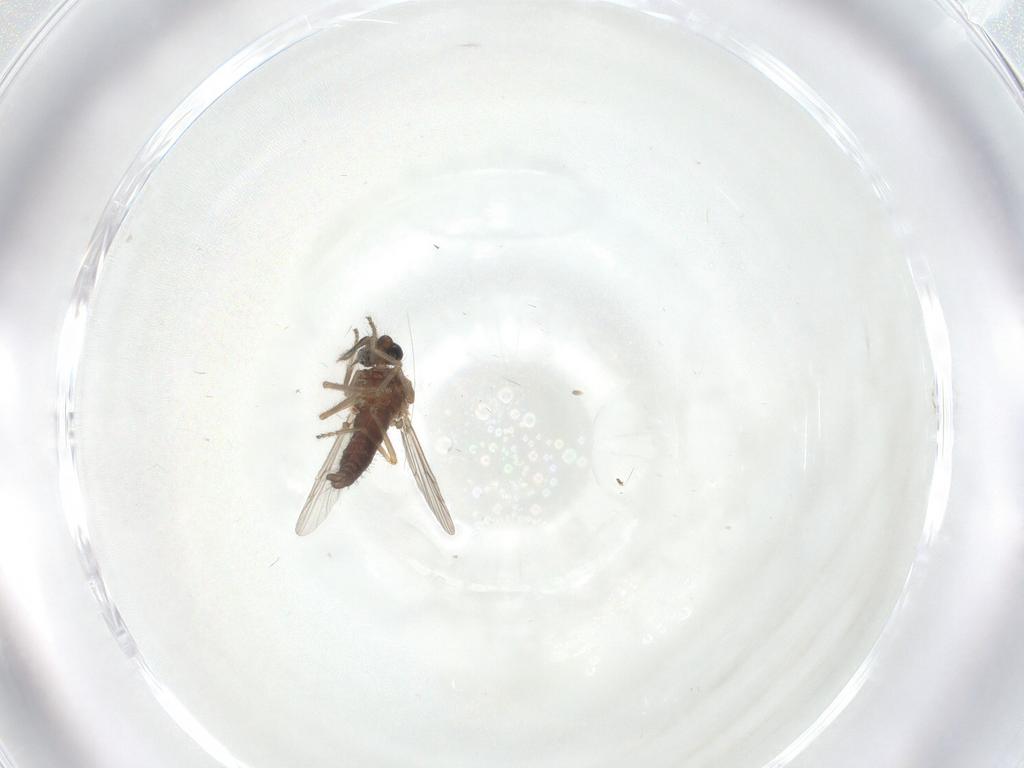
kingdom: Animalia
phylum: Arthropoda
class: Insecta
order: Diptera
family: Ceratopogonidae
